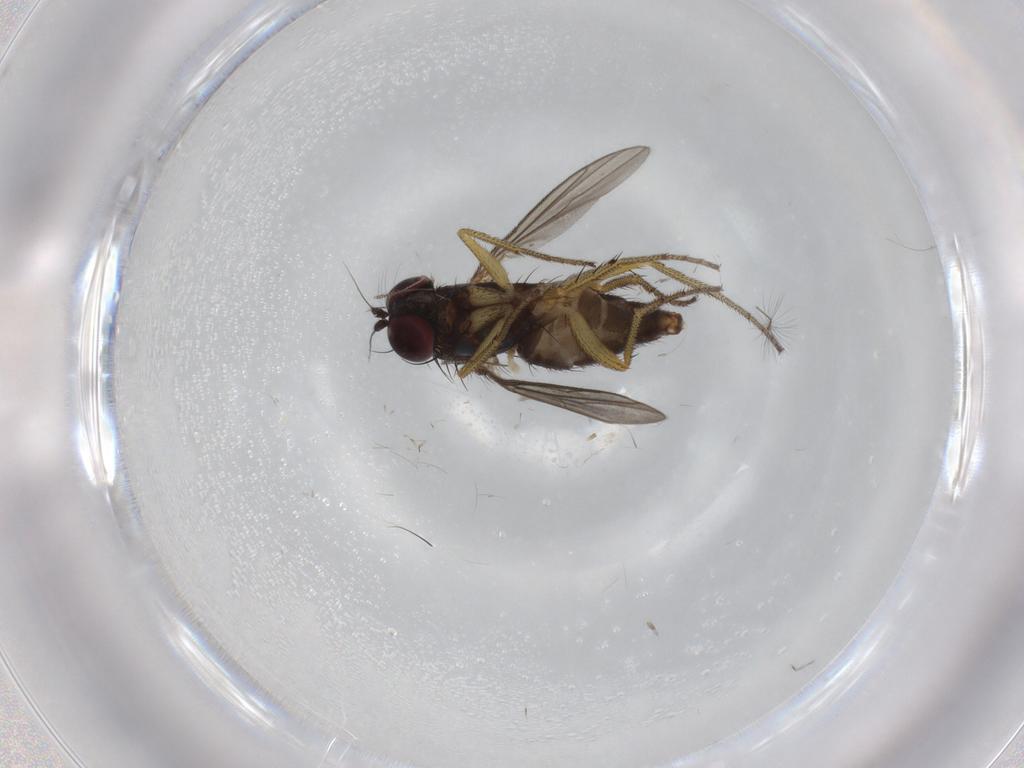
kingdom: Animalia
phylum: Arthropoda
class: Insecta
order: Diptera
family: Dolichopodidae
